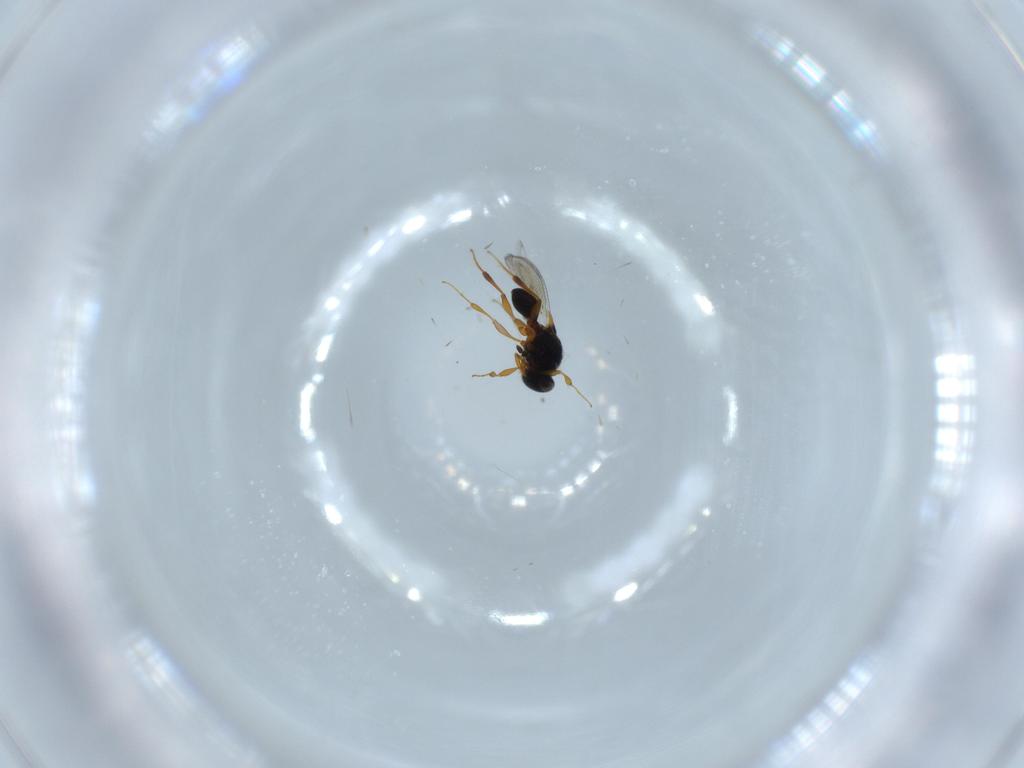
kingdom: Animalia
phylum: Arthropoda
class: Insecta
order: Hymenoptera
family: Platygastridae
